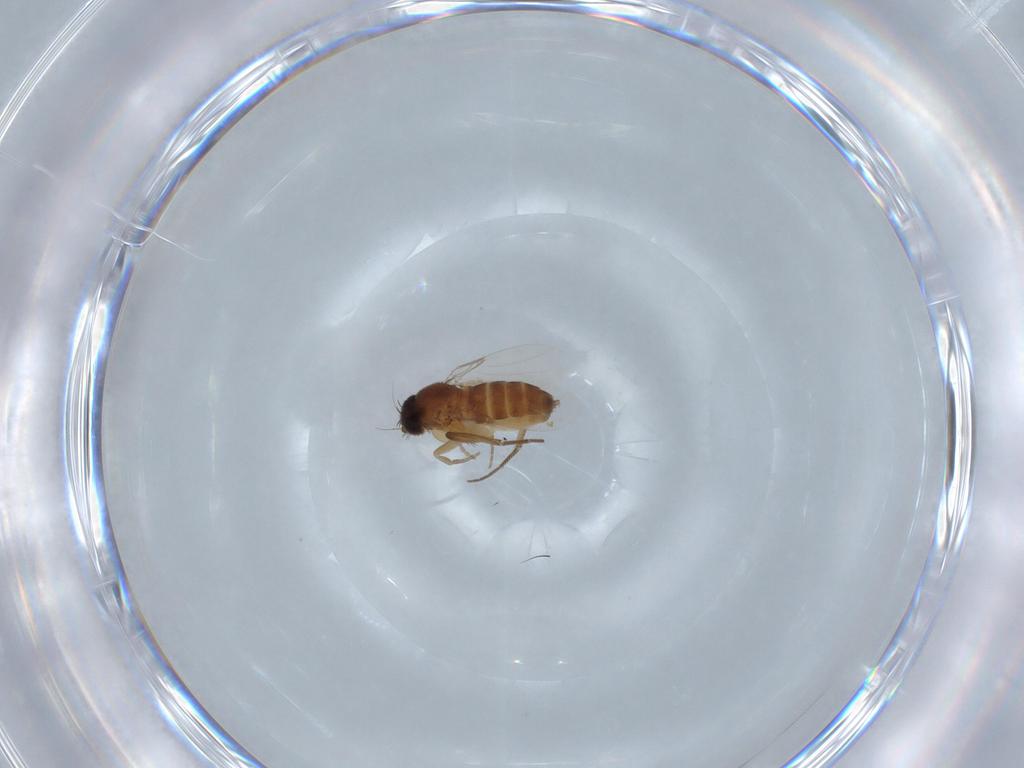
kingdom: Animalia
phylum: Arthropoda
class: Insecta
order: Diptera
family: Phoridae
